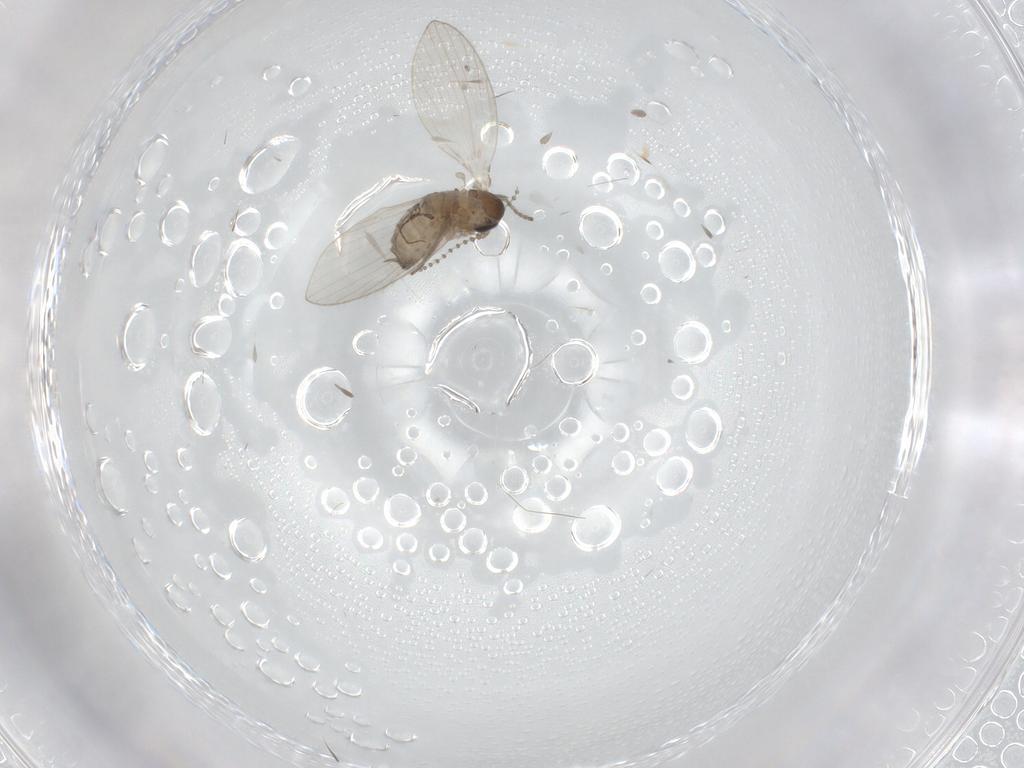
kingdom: Animalia
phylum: Arthropoda
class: Insecta
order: Diptera
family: Psychodidae
